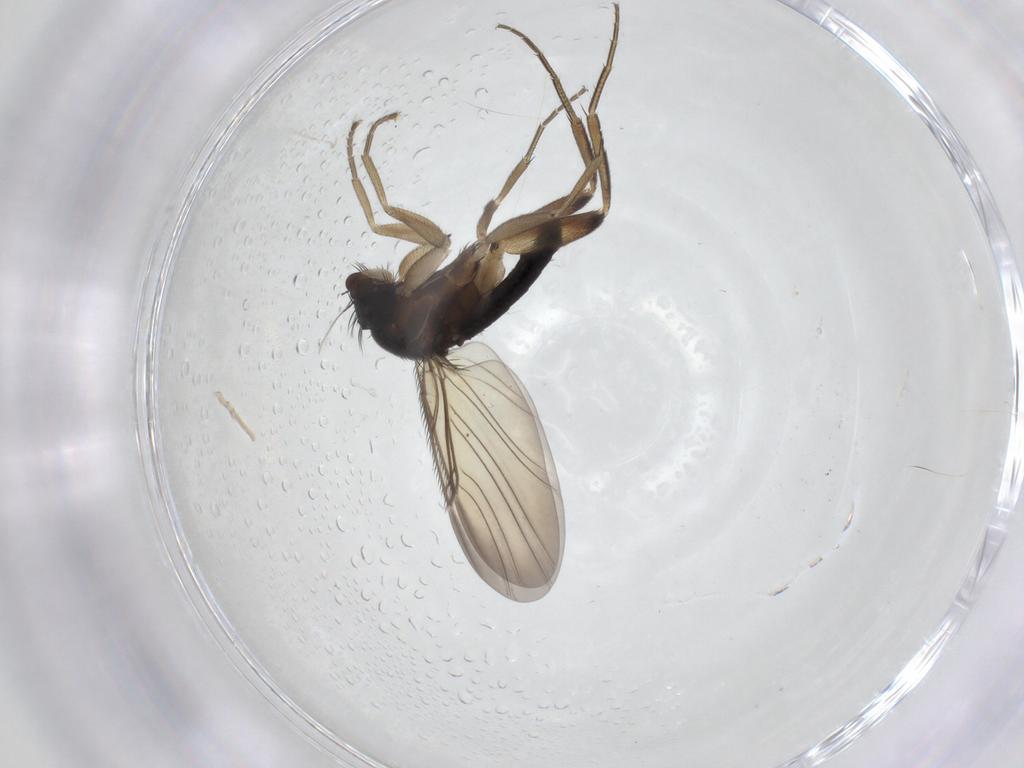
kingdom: Animalia
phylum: Arthropoda
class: Insecta
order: Diptera
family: Phoridae
